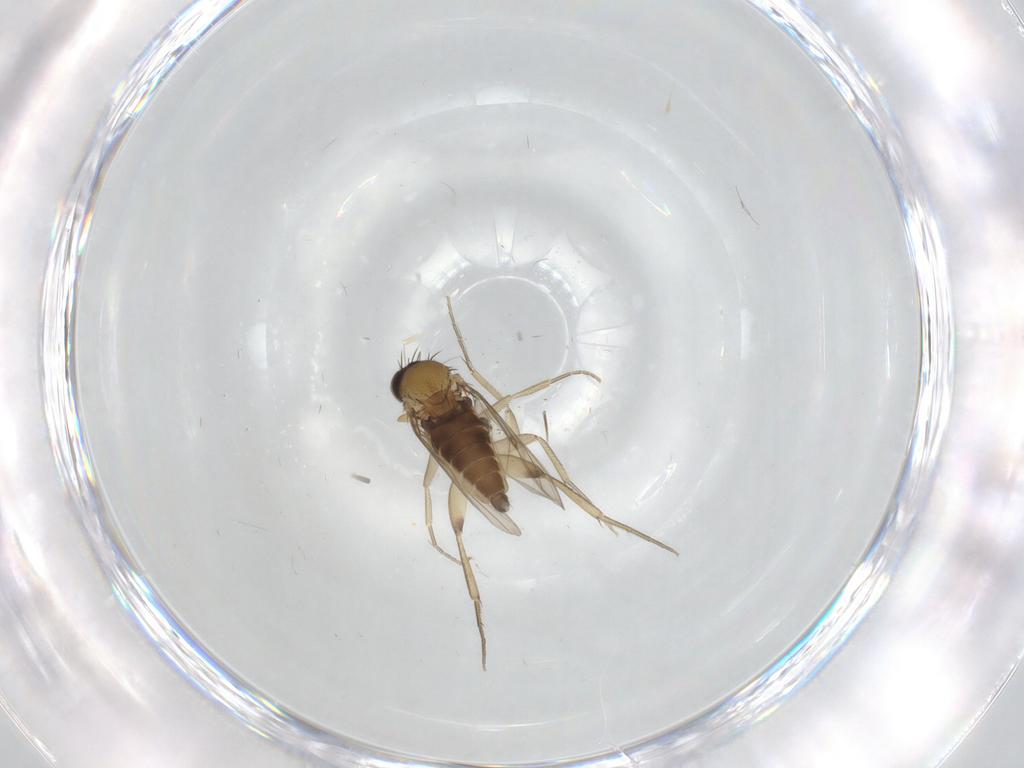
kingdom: Animalia
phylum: Arthropoda
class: Insecta
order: Diptera
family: Phoridae
